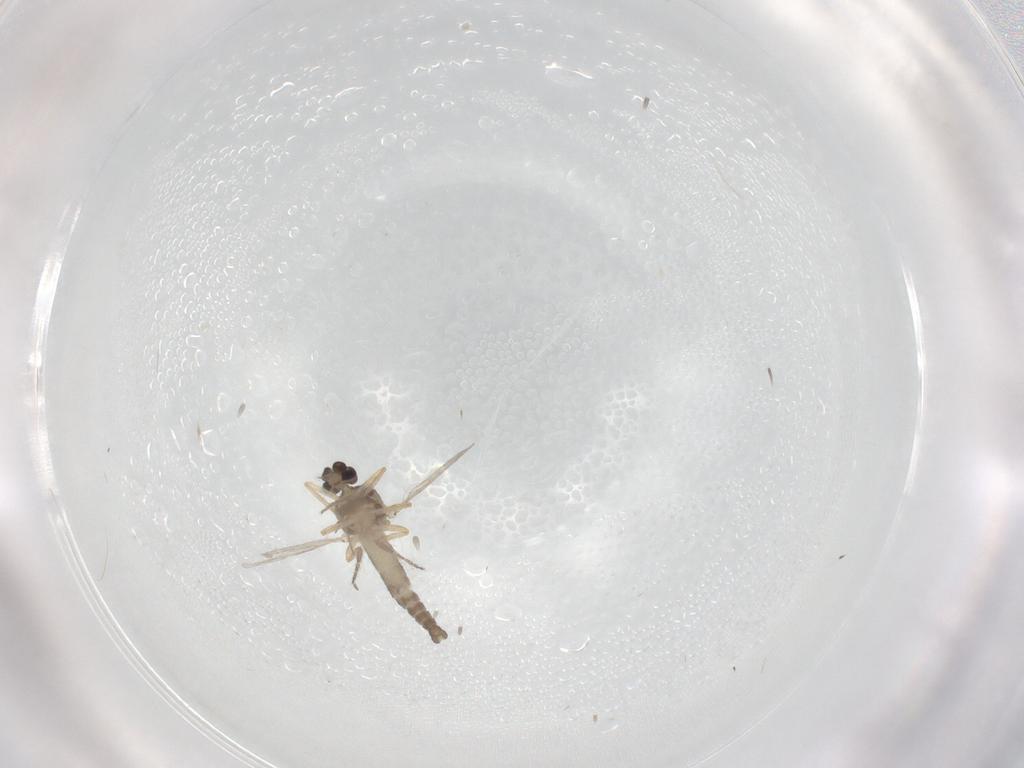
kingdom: Animalia
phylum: Arthropoda
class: Insecta
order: Diptera
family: Ceratopogonidae
